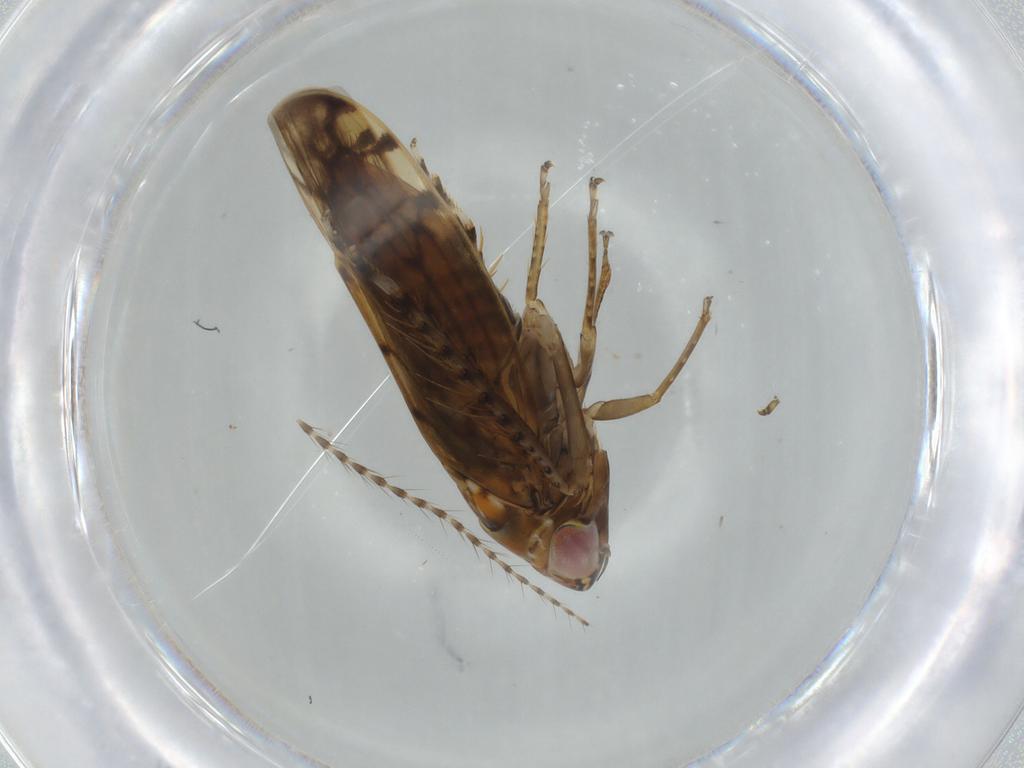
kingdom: Animalia
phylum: Arthropoda
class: Insecta
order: Hemiptera
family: Cicadellidae
